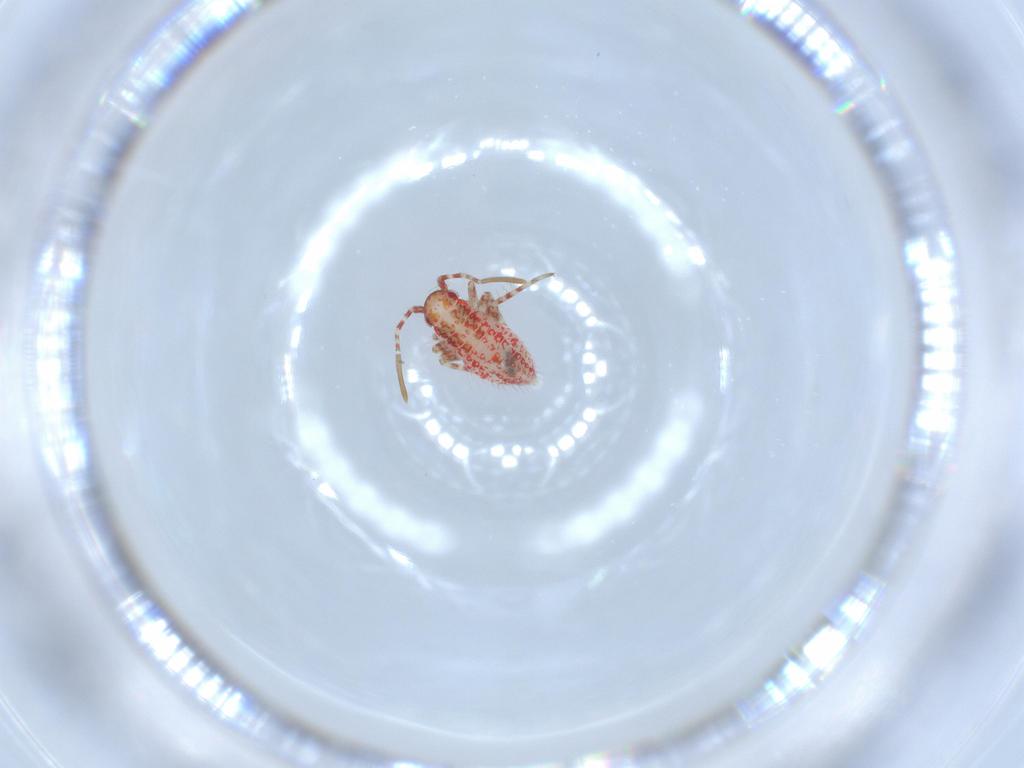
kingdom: Animalia
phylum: Arthropoda
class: Insecta
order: Hemiptera
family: Miridae
